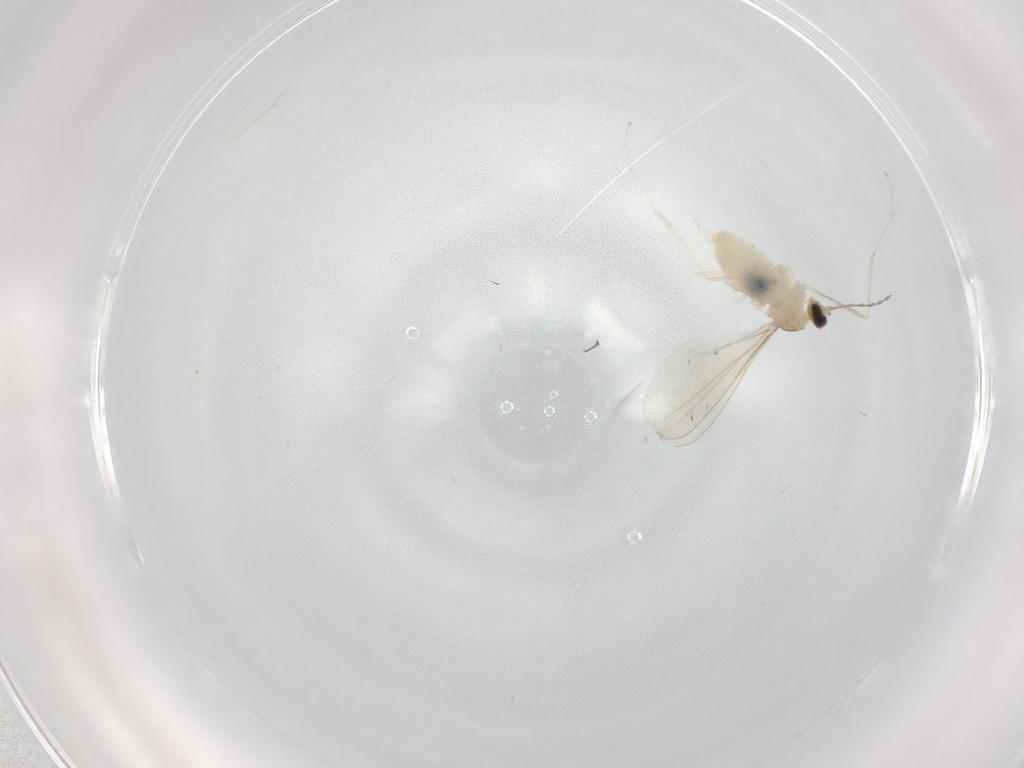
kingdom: Animalia
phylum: Arthropoda
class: Insecta
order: Diptera
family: Cecidomyiidae
